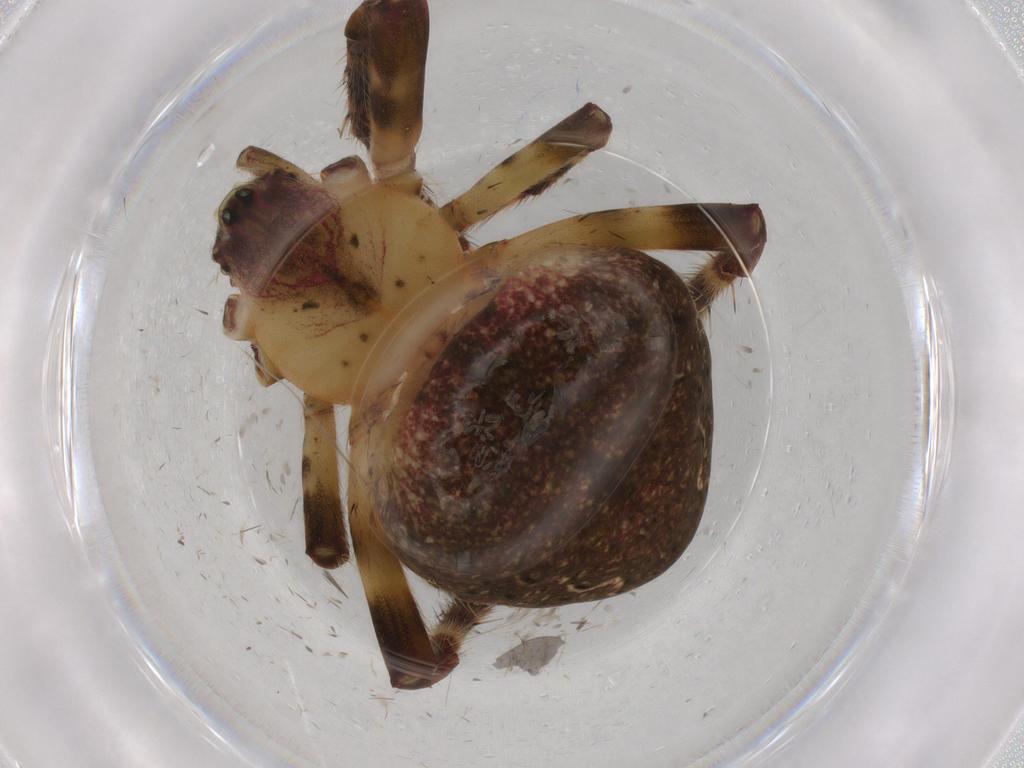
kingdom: Animalia
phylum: Arthropoda
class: Arachnida
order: Araneae
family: Araneidae
